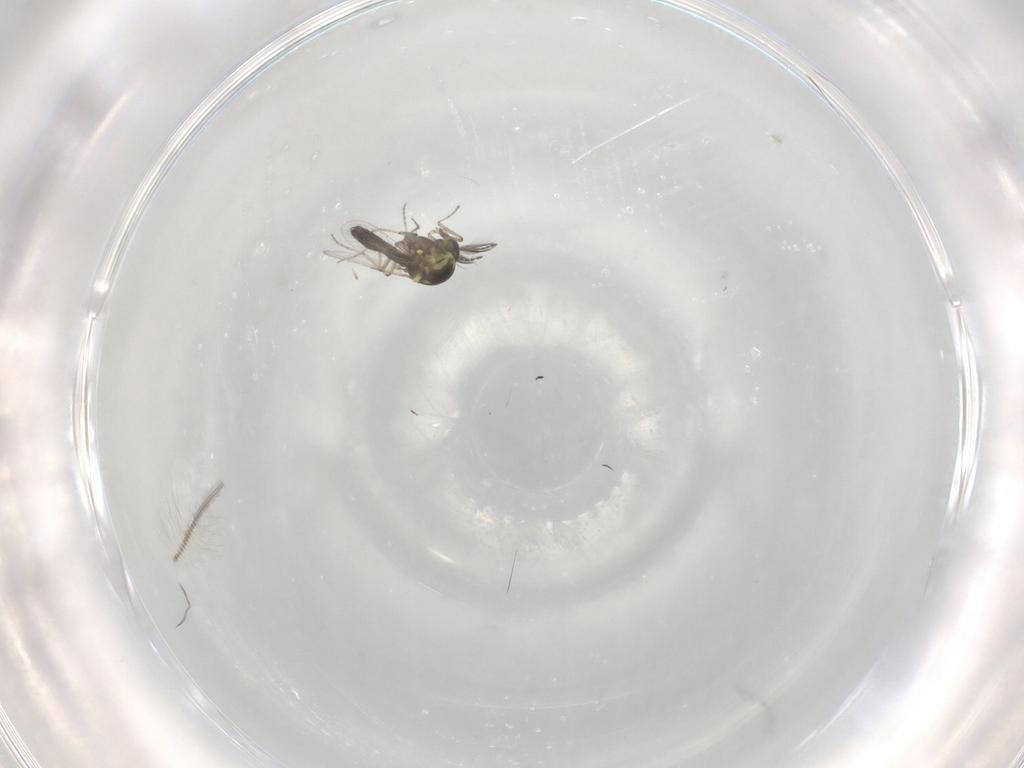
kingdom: Animalia
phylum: Arthropoda
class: Insecta
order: Diptera
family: Chironomidae
